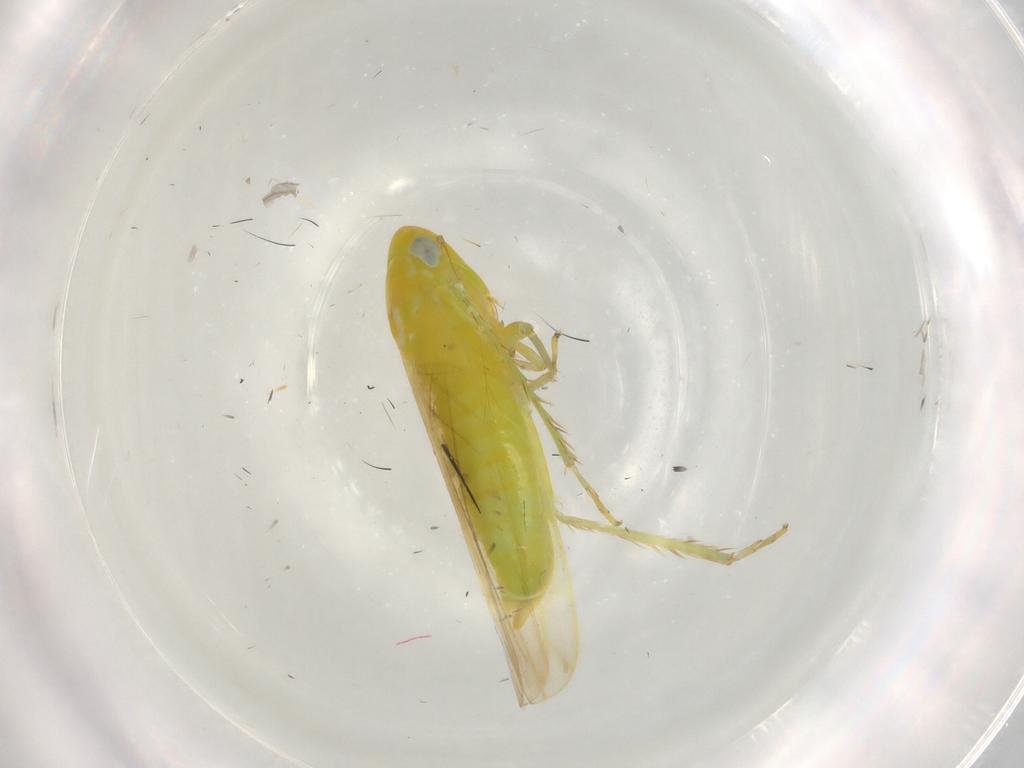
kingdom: Animalia
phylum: Arthropoda
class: Insecta
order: Hemiptera
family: Cicadellidae
